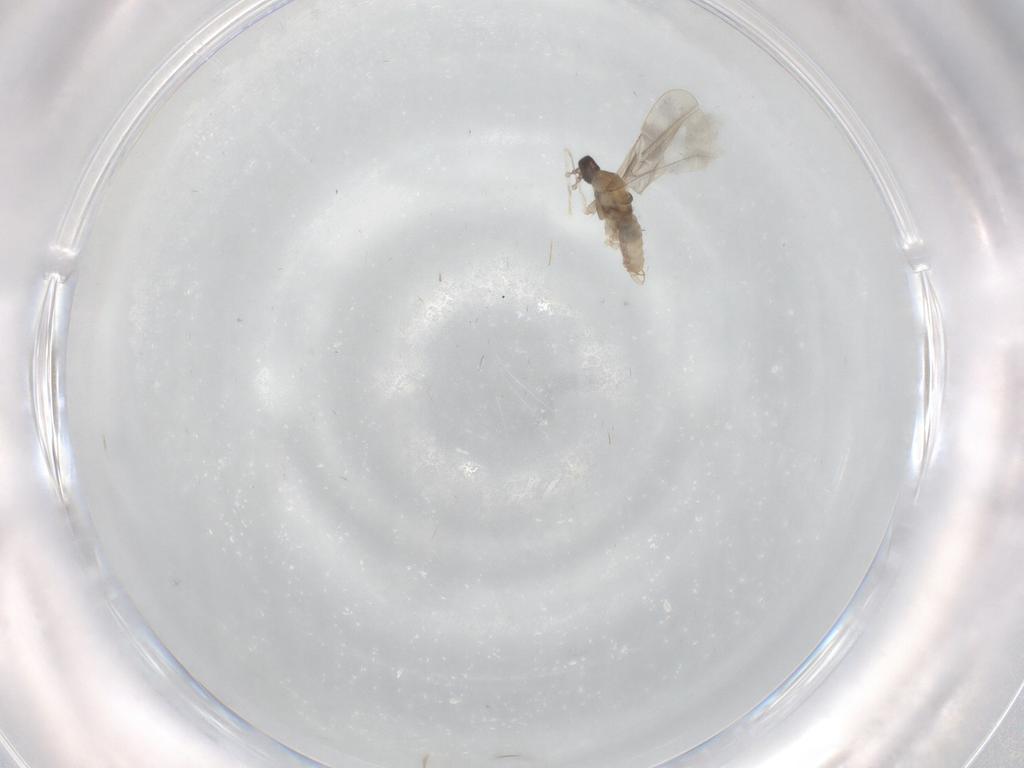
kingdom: Animalia
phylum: Arthropoda
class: Insecta
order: Diptera
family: Cecidomyiidae
